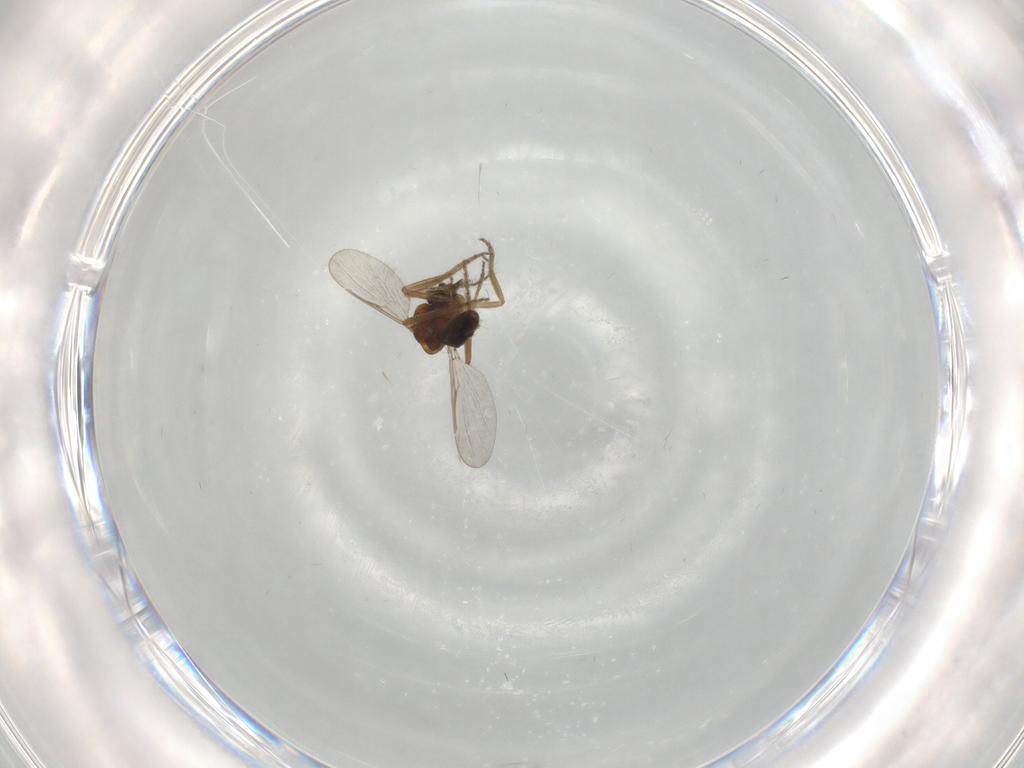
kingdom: Animalia
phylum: Arthropoda
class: Insecta
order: Diptera
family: Ceratopogonidae
